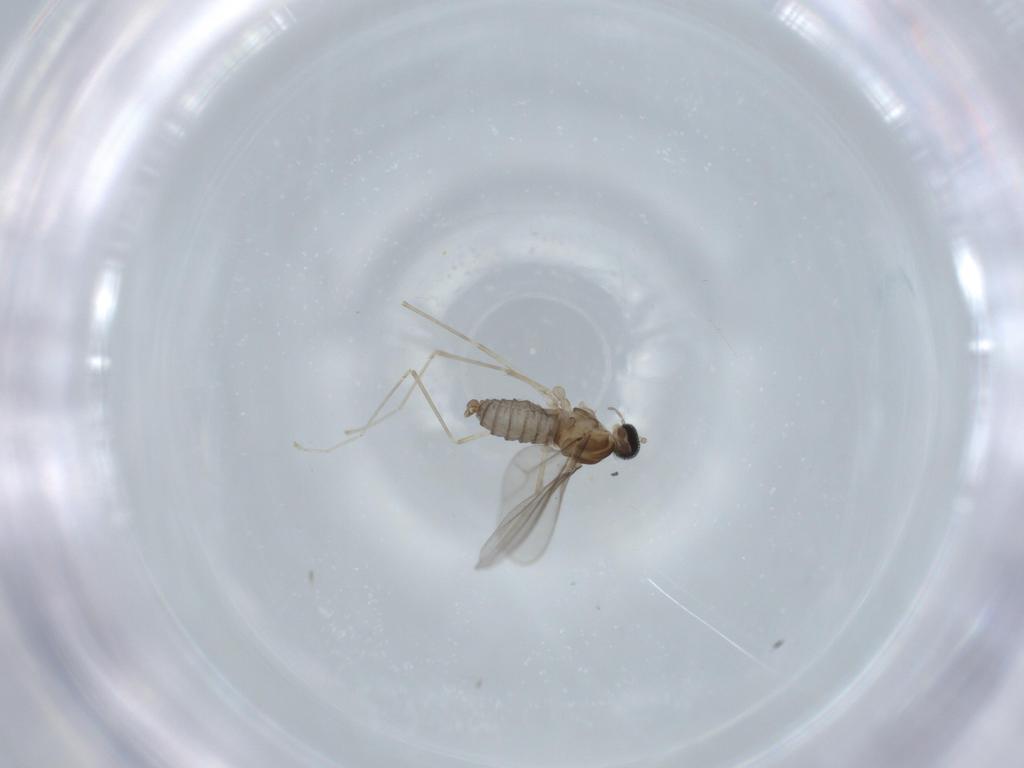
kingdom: Animalia
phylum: Arthropoda
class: Insecta
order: Diptera
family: Cecidomyiidae
